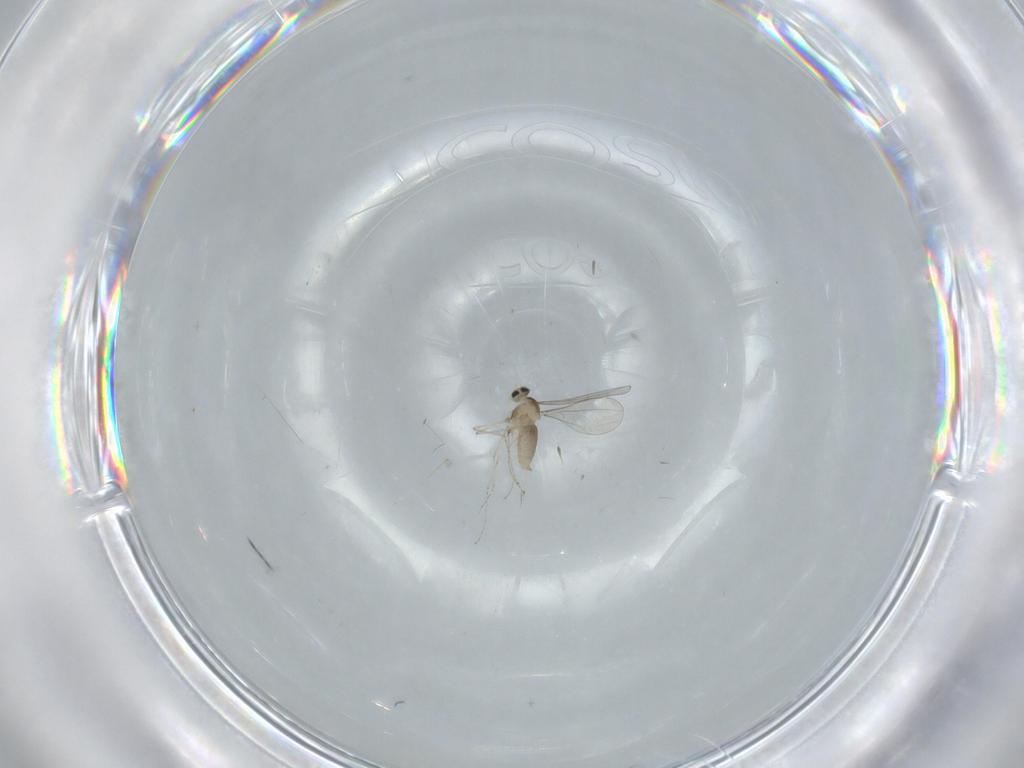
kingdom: Animalia
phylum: Arthropoda
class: Insecta
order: Diptera
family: Cecidomyiidae
